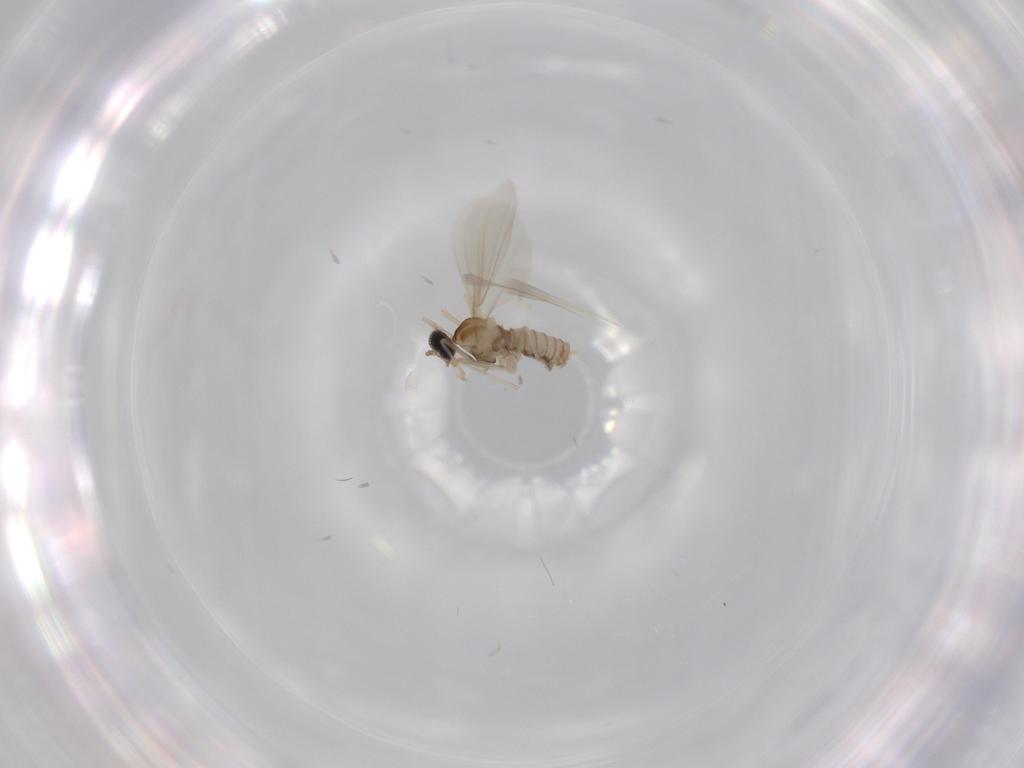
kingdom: Animalia
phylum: Arthropoda
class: Insecta
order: Diptera
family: Cecidomyiidae
